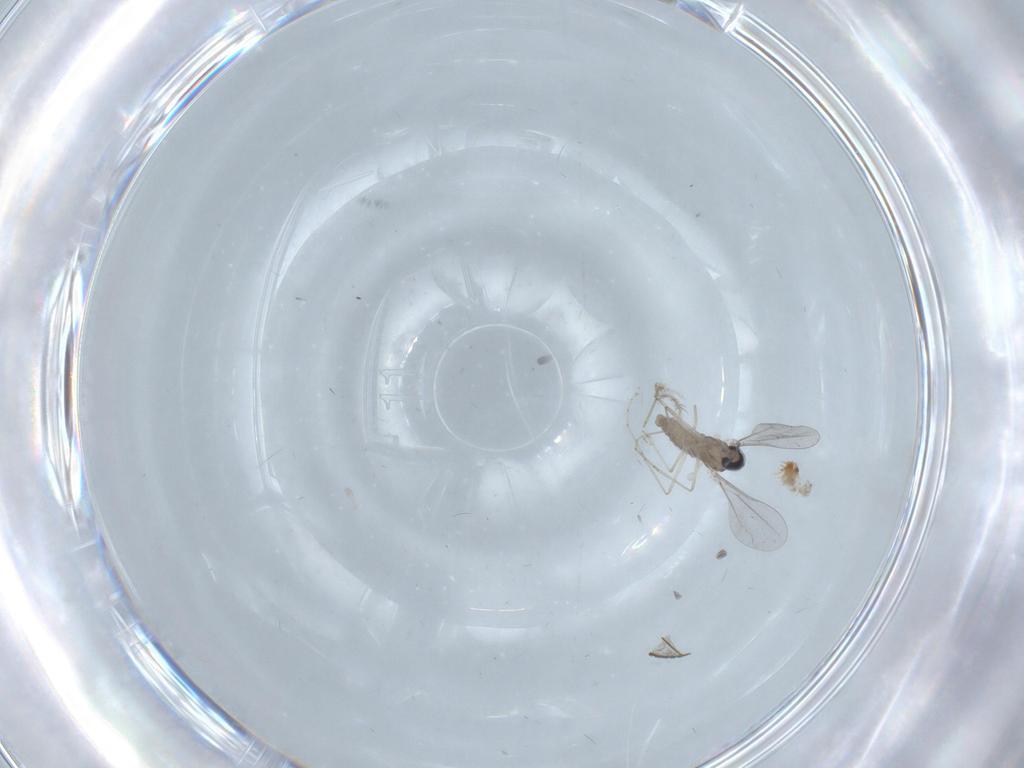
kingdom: Animalia
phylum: Arthropoda
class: Insecta
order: Diptera
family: Cecidomyiidae
